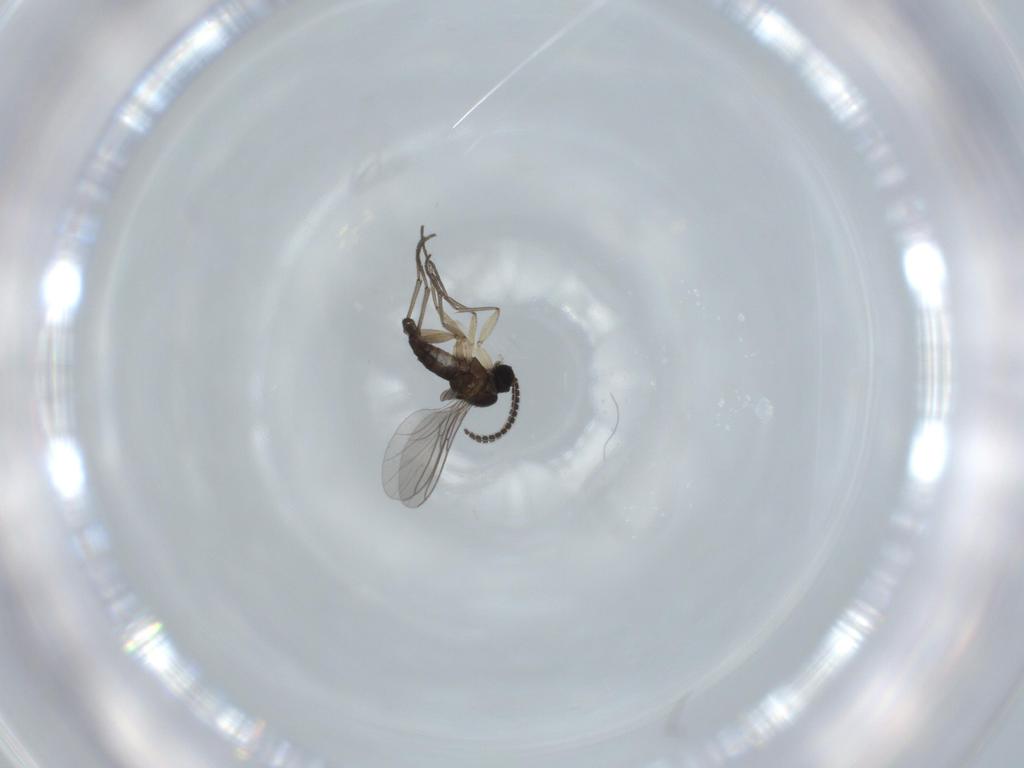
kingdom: Animalia
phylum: Arthropoda
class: Insecta
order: Diptera
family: Sciaridae
